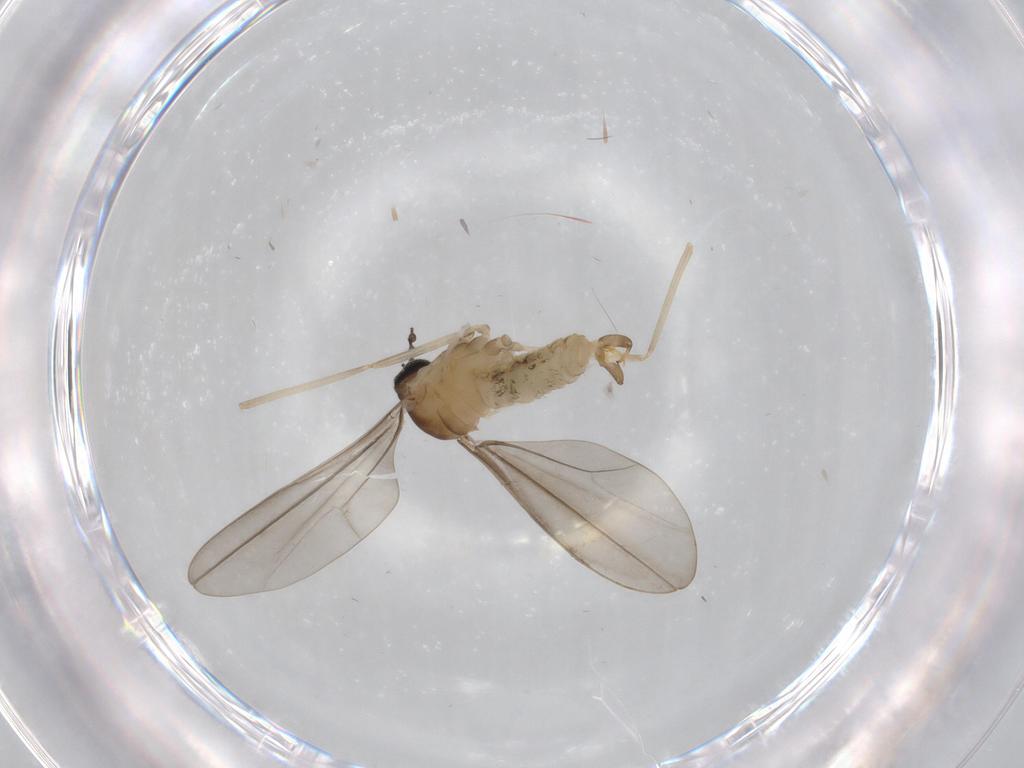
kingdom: Animalia
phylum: Arthropoda
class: Insecta
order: Diptera
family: Cecidomyiidae
